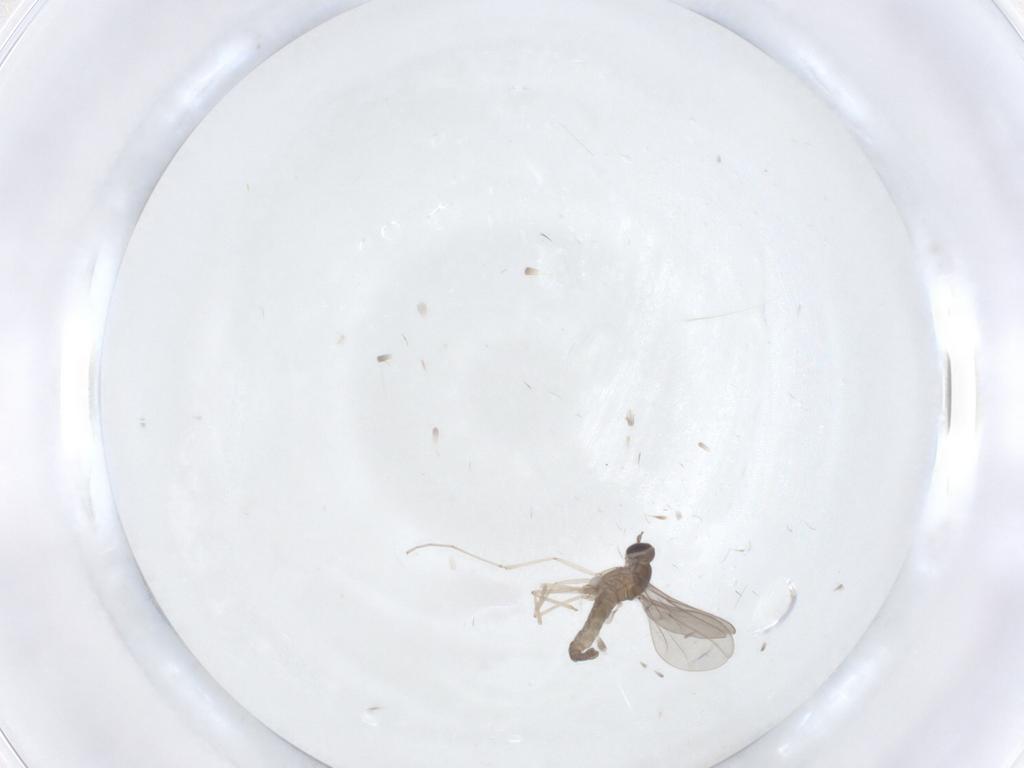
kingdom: Animalia
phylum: Arthropoda
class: Insecta
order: Diptera
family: Cecidomyiidae
